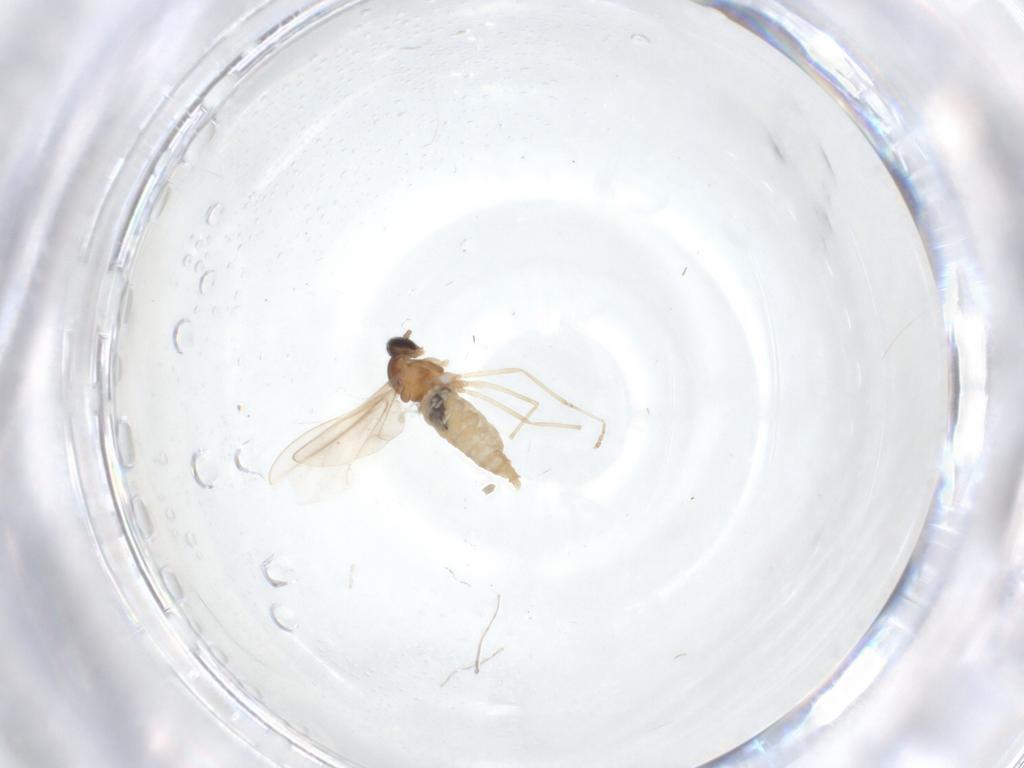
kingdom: Animalia
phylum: Arthropoda
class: Insecta
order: Diptera
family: Cecidomyiidae
